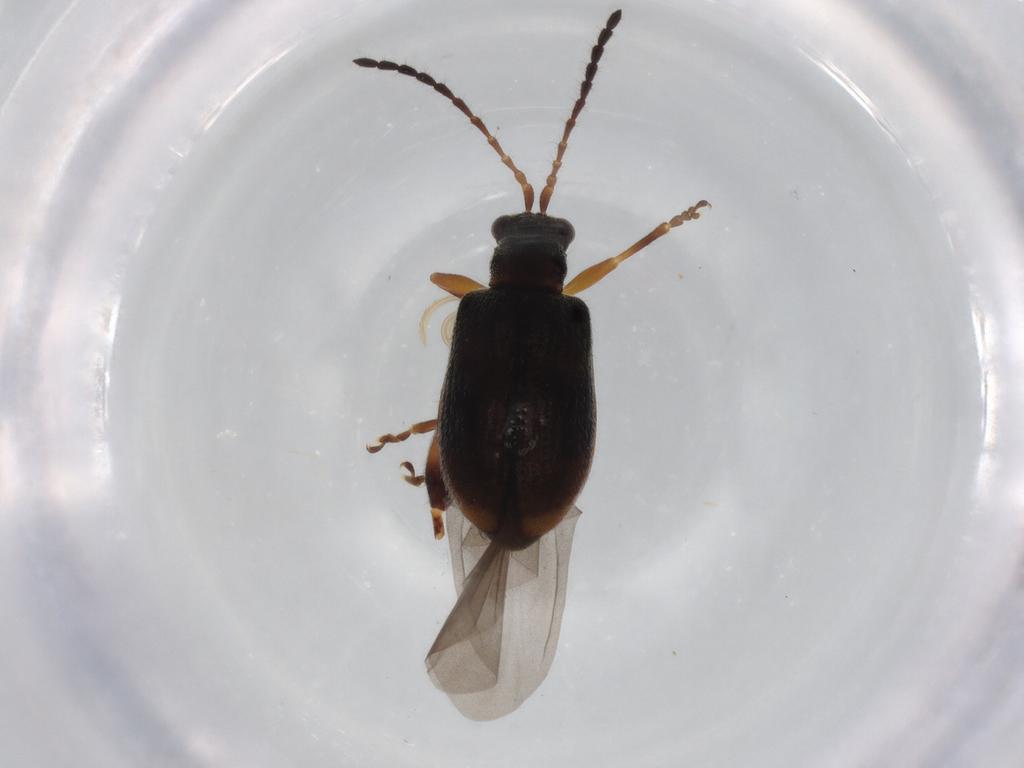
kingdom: Animalia
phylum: Arthropoda
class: Insecta
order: Coleoptera
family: Chrysomelidae
